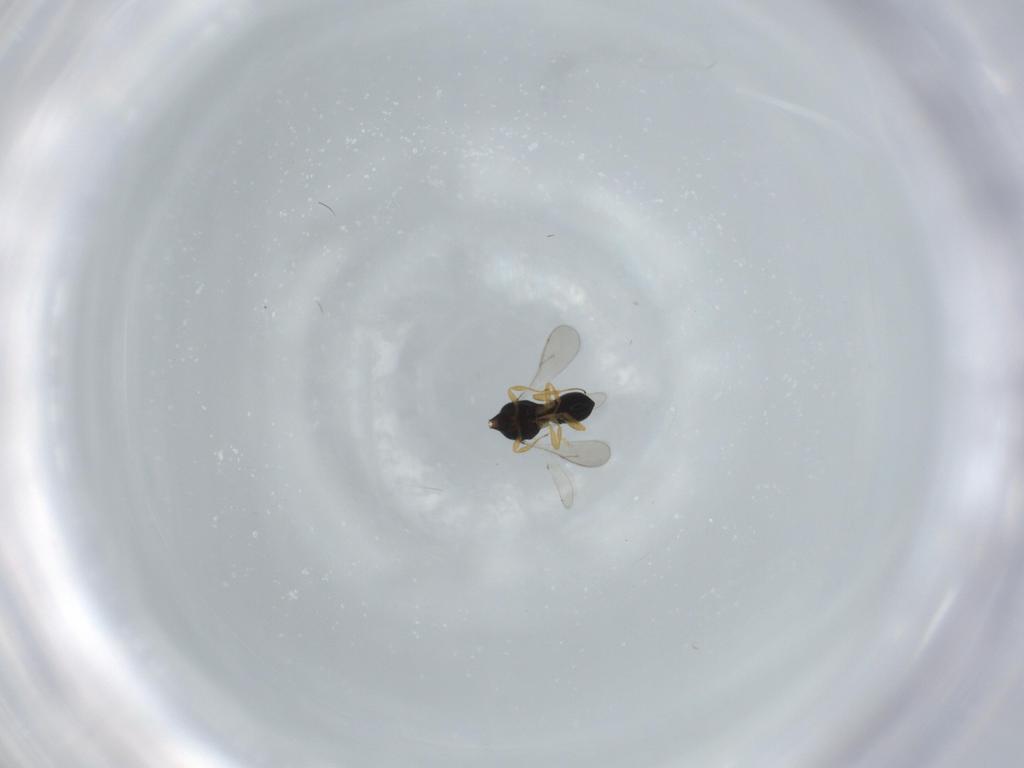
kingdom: Animalia
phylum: Arthropoda
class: Insecta
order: Hymenoptera
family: Scelionidae
